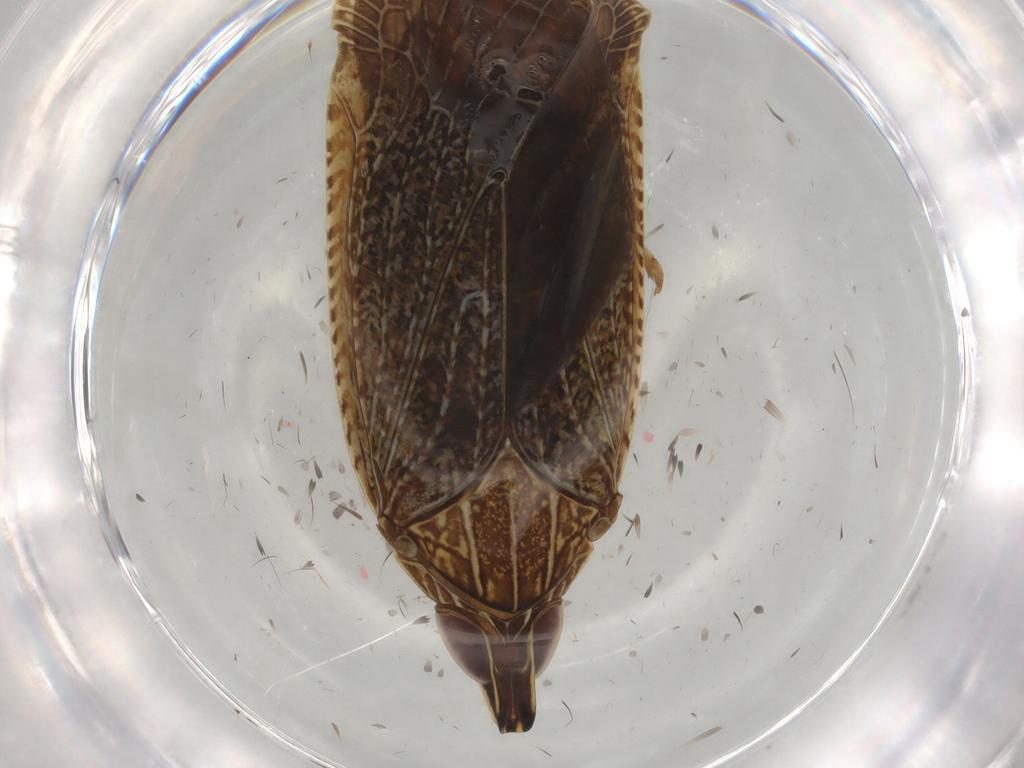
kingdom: Animalia
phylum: Arthropoda
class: Insecta
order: Hemiptera
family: Achilidae
